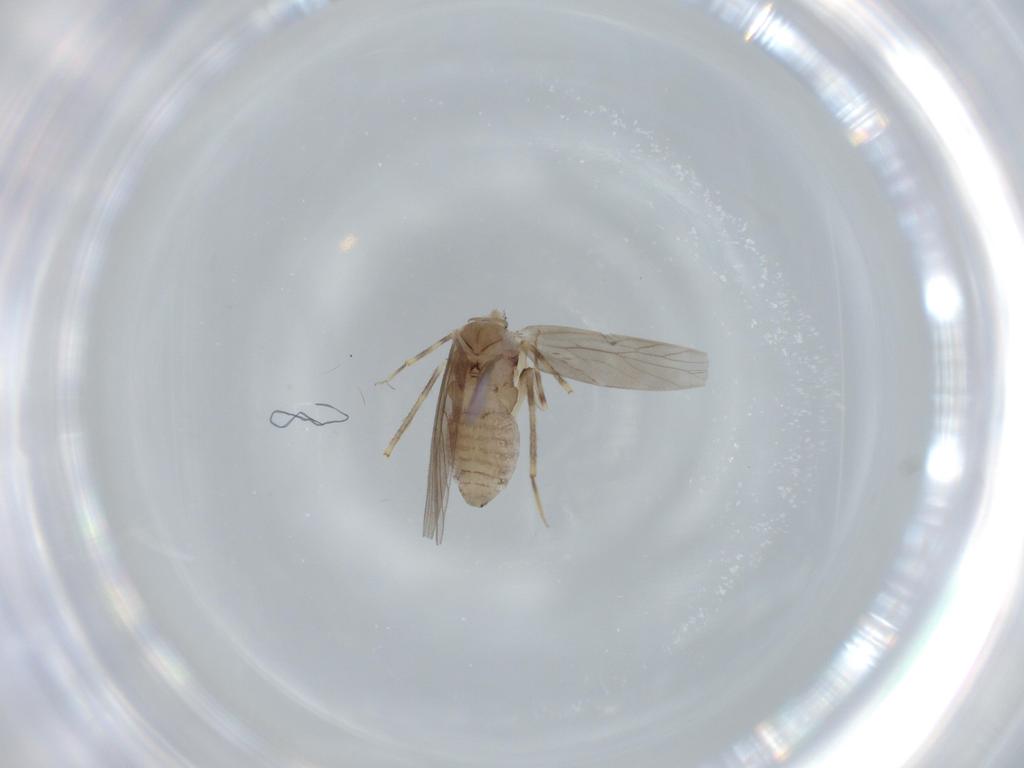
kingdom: Animalia
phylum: Arthropoda
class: Insecta
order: Psocodea
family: Lepidopsocidae
